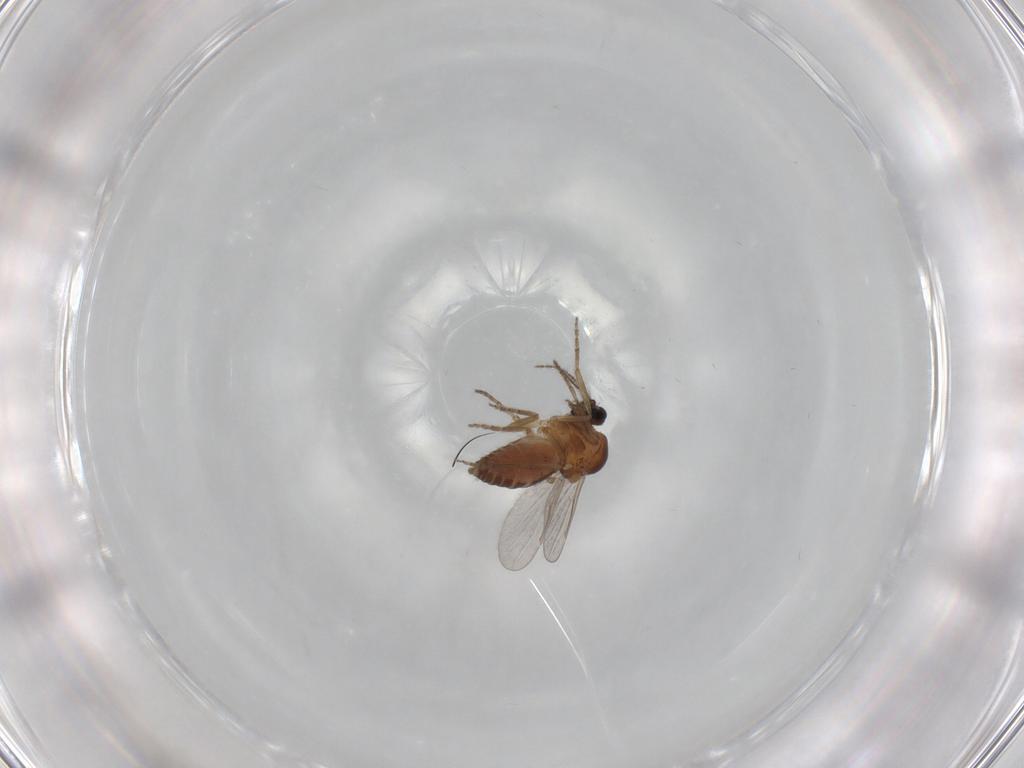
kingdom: Animalia
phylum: Arthropoda
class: Insecta
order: Diptera
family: Ceratopogonidae
